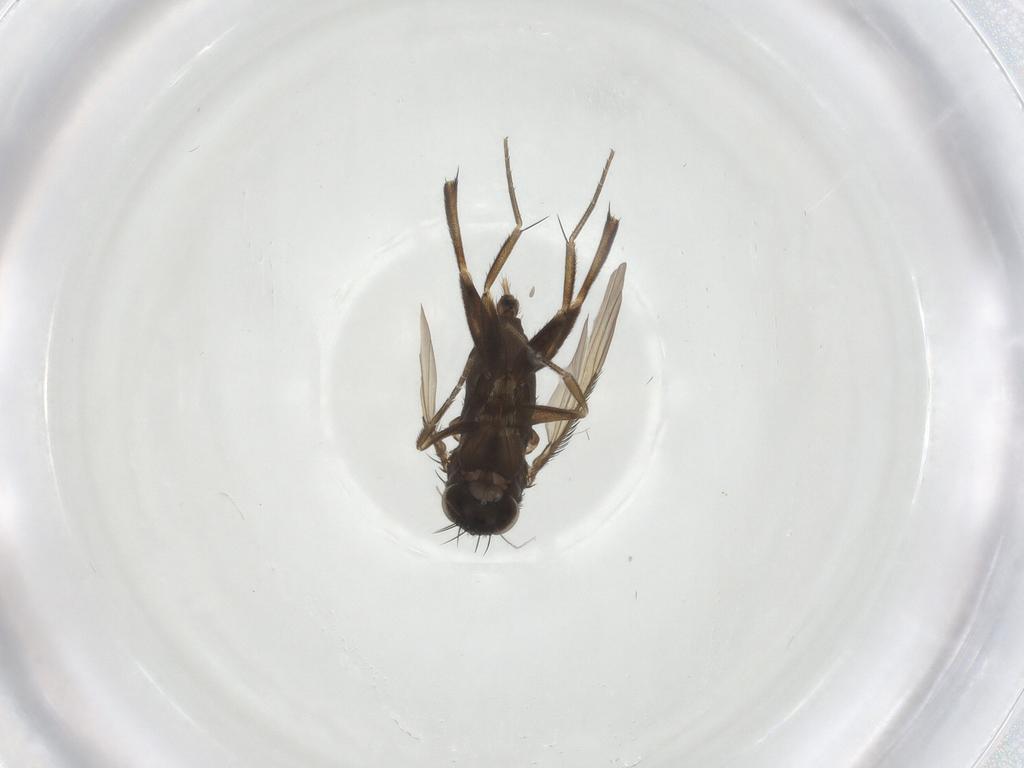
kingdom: Animalia
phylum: Arthropoda
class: Insecta
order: Diptera
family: Phoridae
